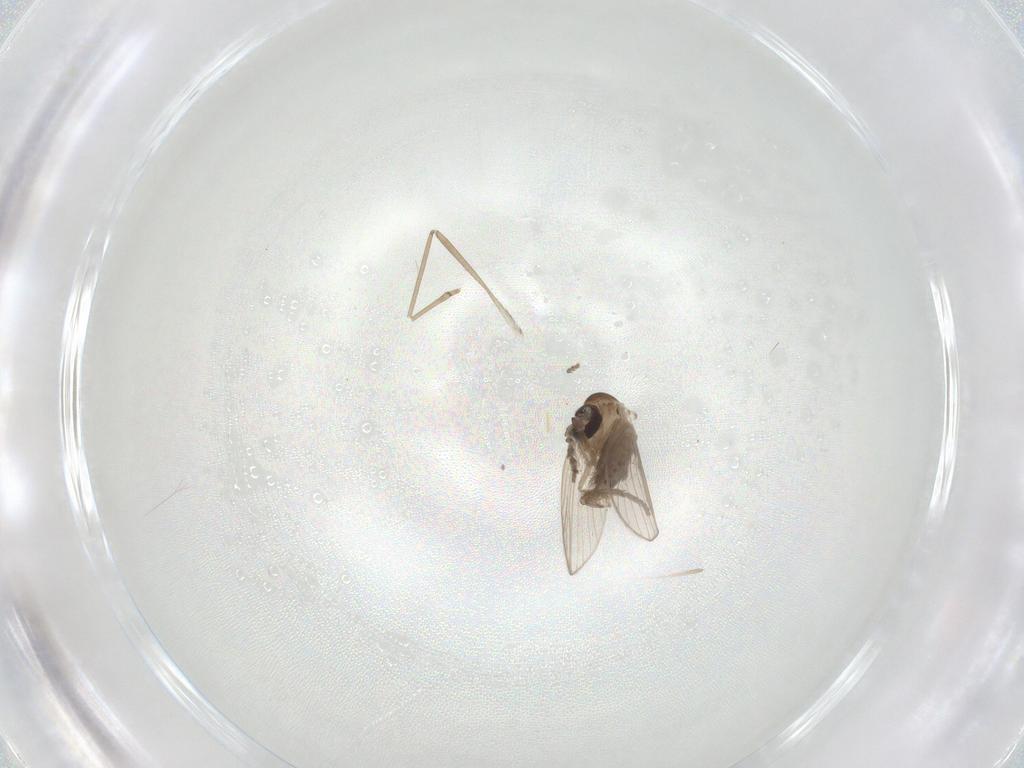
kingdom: Animalia
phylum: Arthropoda
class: Insecta
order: Diptera
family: Psychodidae
